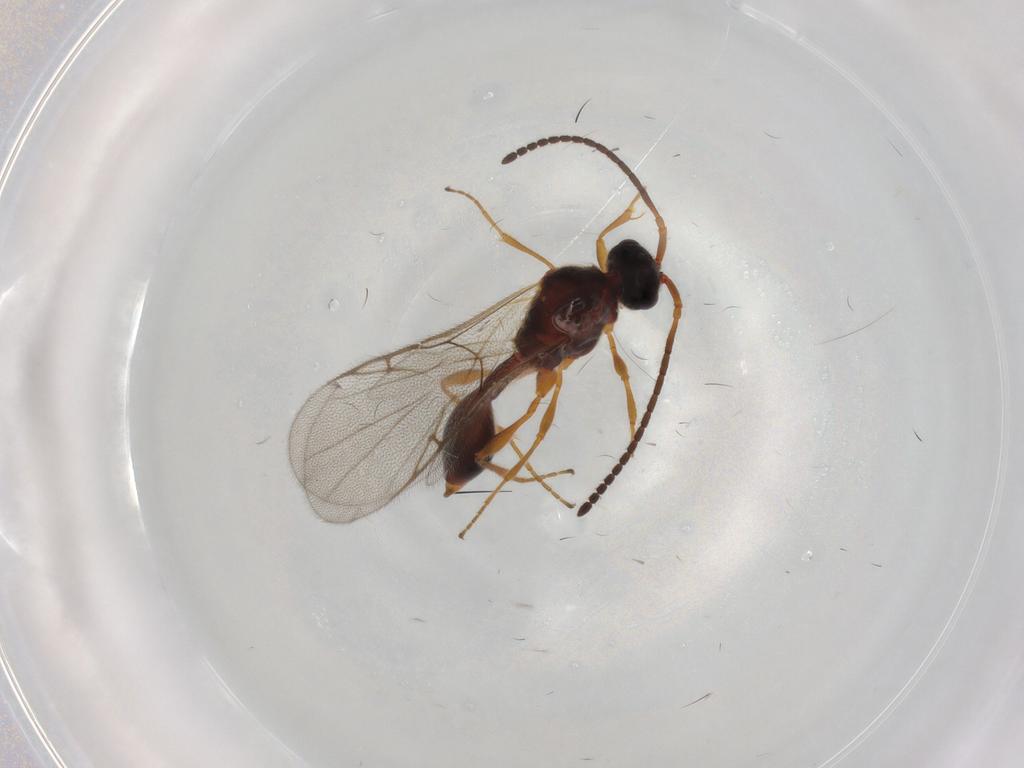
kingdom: Animalia
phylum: Arthropoda
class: Insecta
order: Hymenoptera
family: Diapriidae
